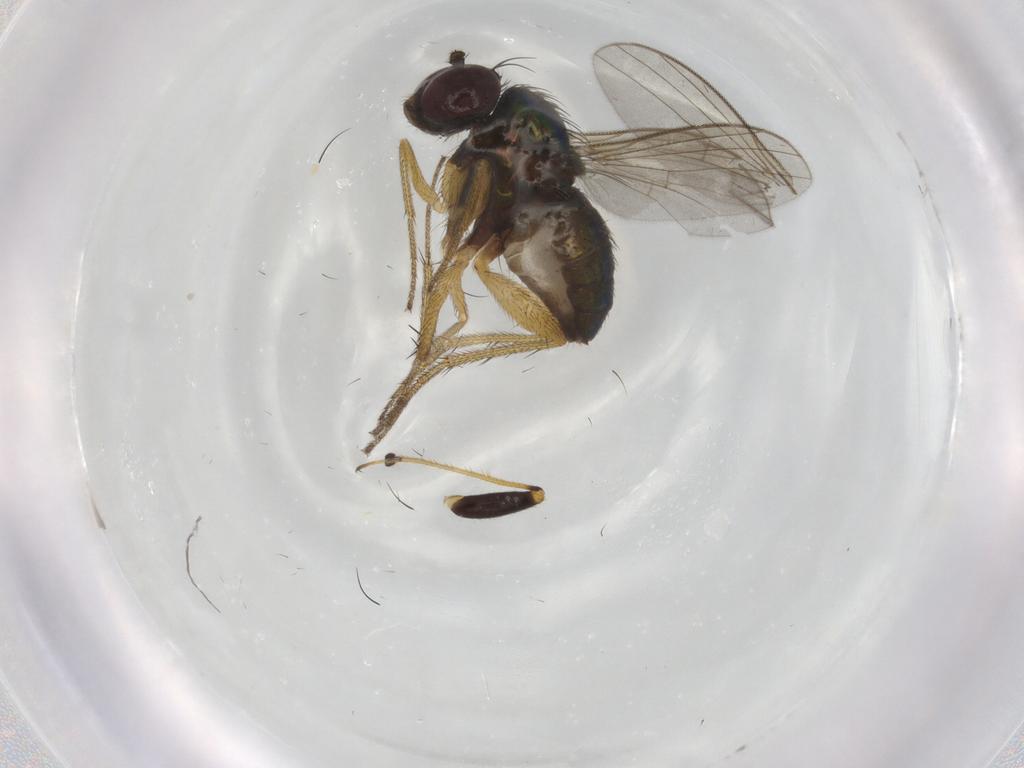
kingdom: Animalia
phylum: Arthropoda
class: Insecta
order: Diptera
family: Dolichopodidae
